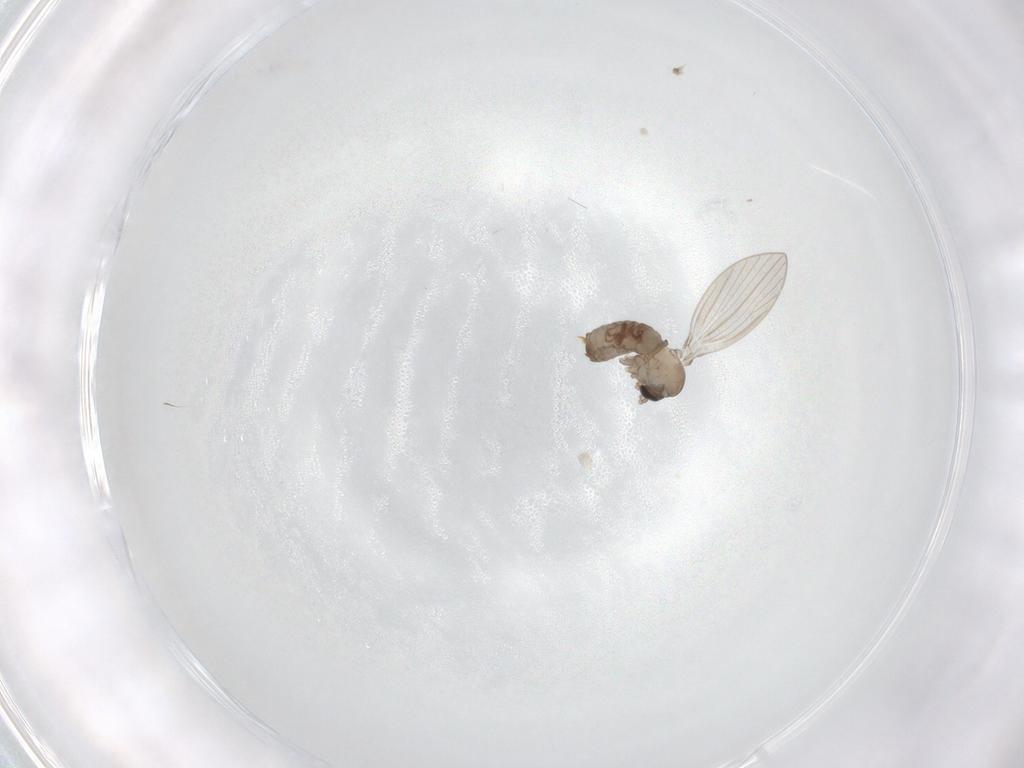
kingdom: Animalia
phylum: Arthropoda
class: Insecta
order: Diptera
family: Psychodidae
